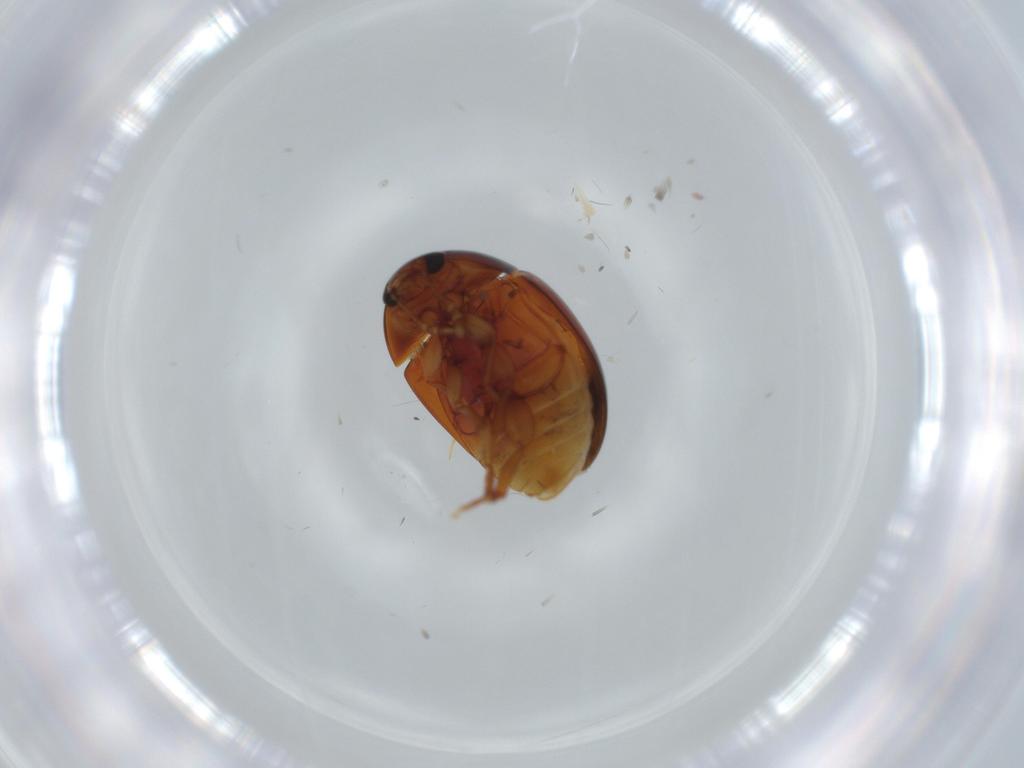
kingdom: Animalia
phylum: Arthropoda
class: Insecta
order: Coleoptera
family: Phalacridae
